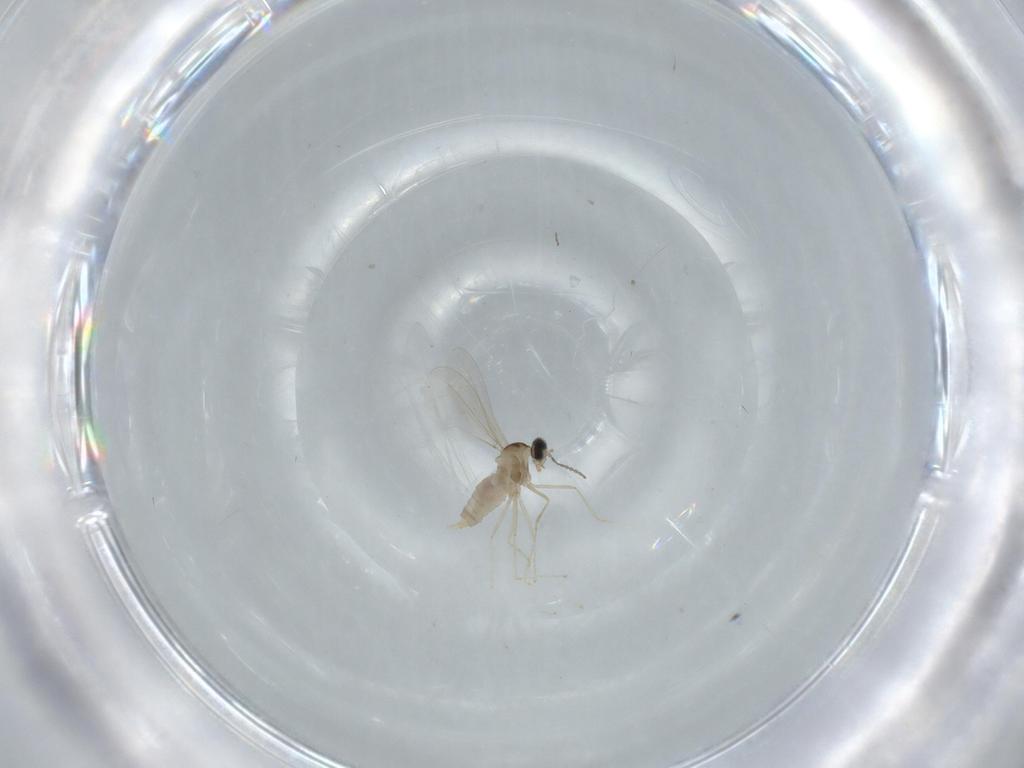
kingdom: Animalia
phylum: Arthropoda
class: Insecta
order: Diptera
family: Cecidomyiidae
